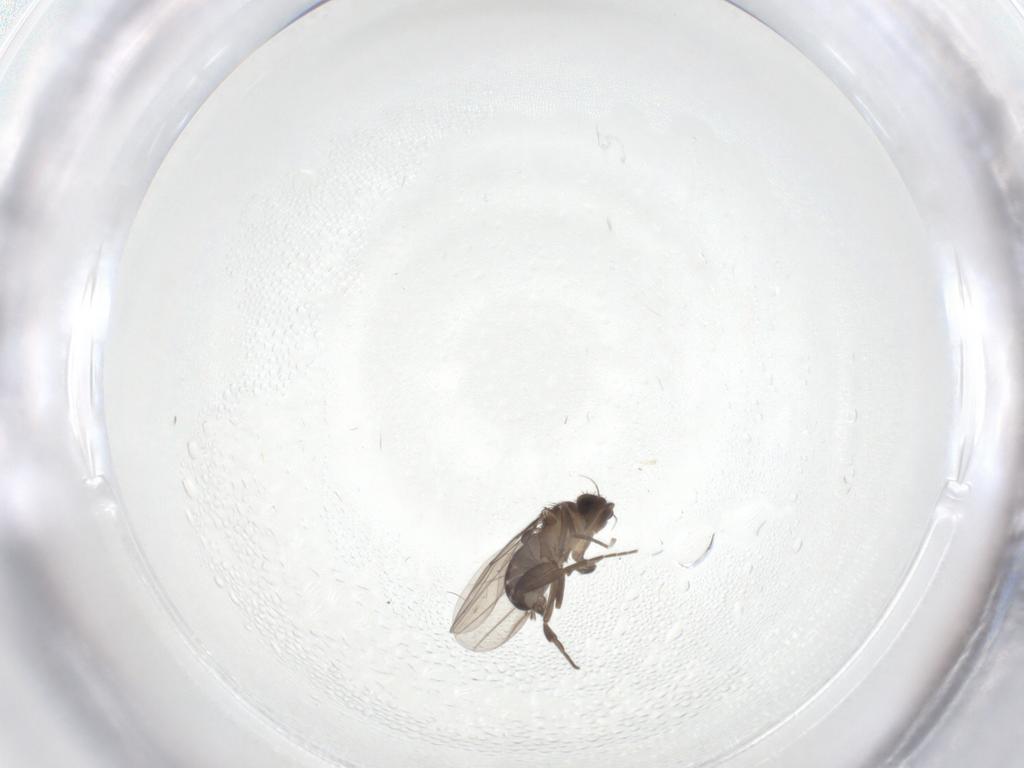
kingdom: Animalia
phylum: Arthropoda
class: Insecta
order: Diptera
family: Phoridae
